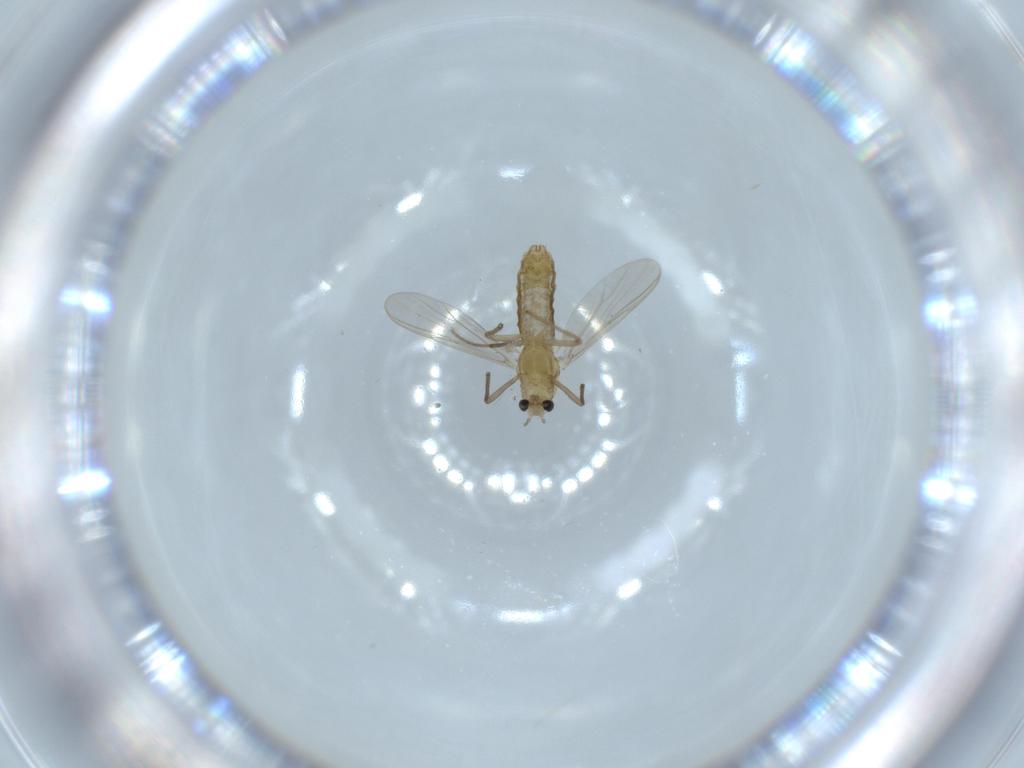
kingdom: Animalia
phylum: Arthropoda
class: Insecta
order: Diptera
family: Chironomidae
